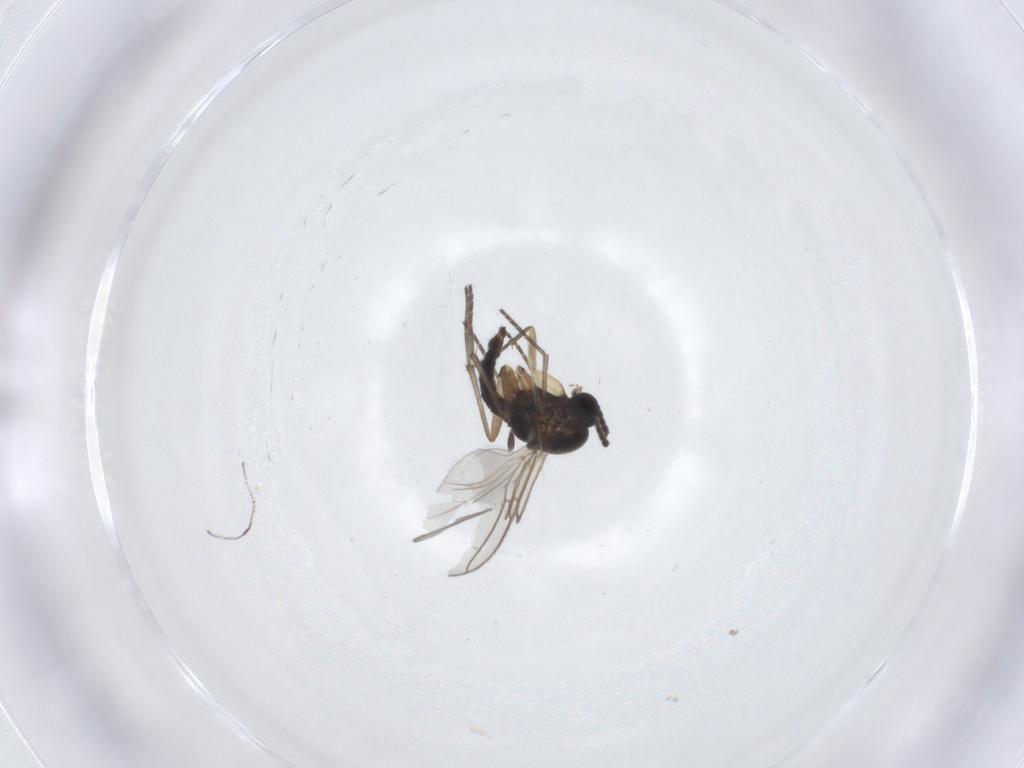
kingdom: Animalia
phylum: Arthropoda
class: Insecta
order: Diptera
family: Sciaridae
